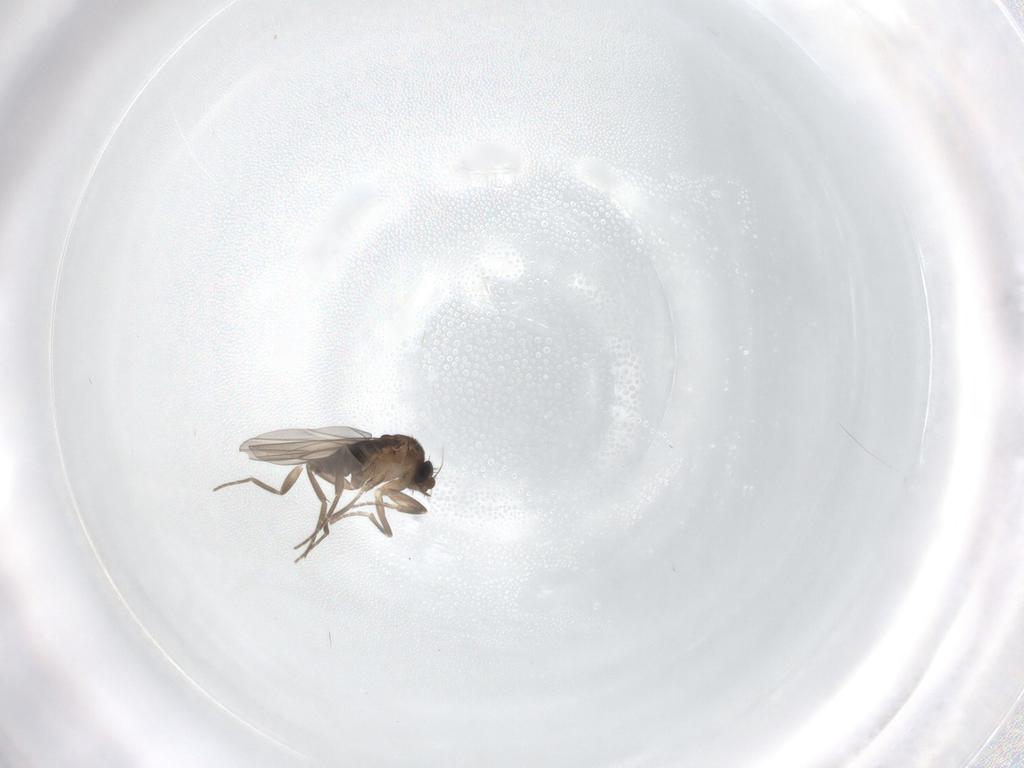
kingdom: Animalia
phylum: Arthropoda
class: Insecta
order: Diptera
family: Phoridae
